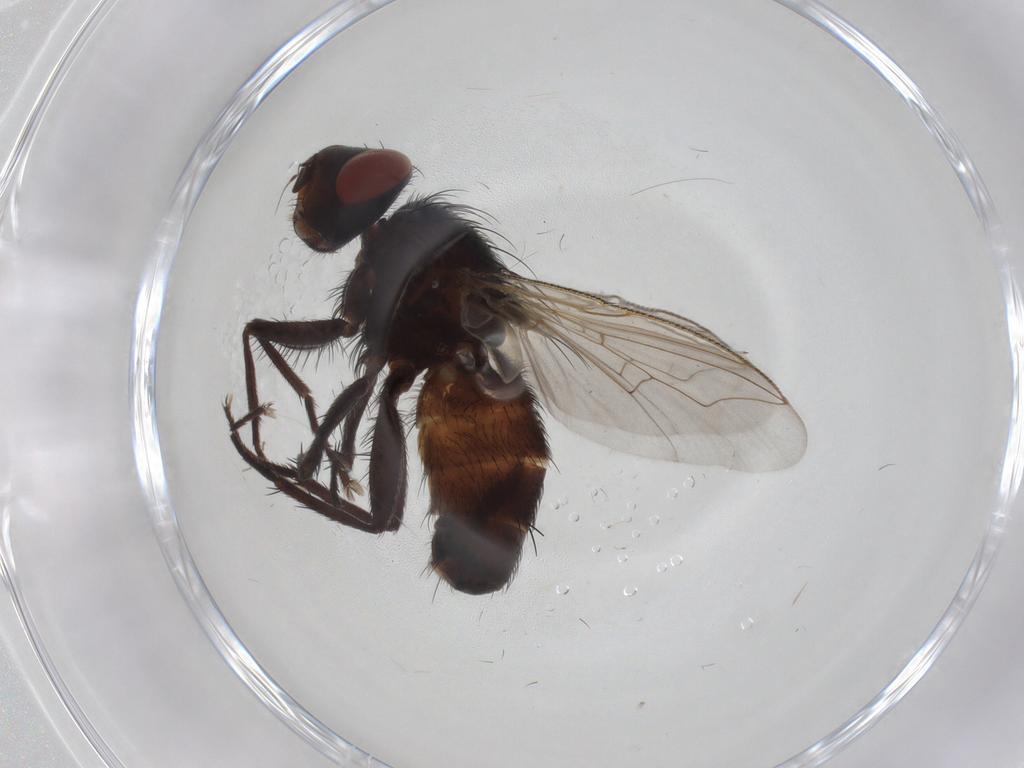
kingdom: Animalia
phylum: Arthropoda
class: Insecta
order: Diptera
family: Sarcophagidae
